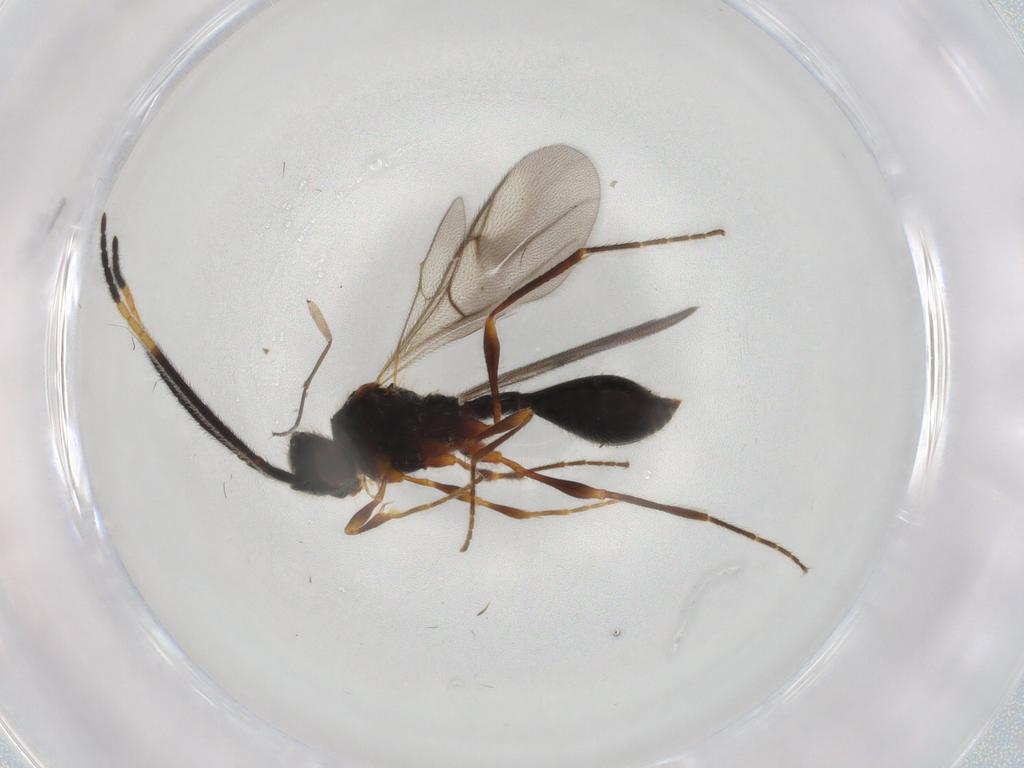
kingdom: Animalia
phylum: Arthropoda
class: Insecta
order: Hymenoptera
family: Diapriidae
